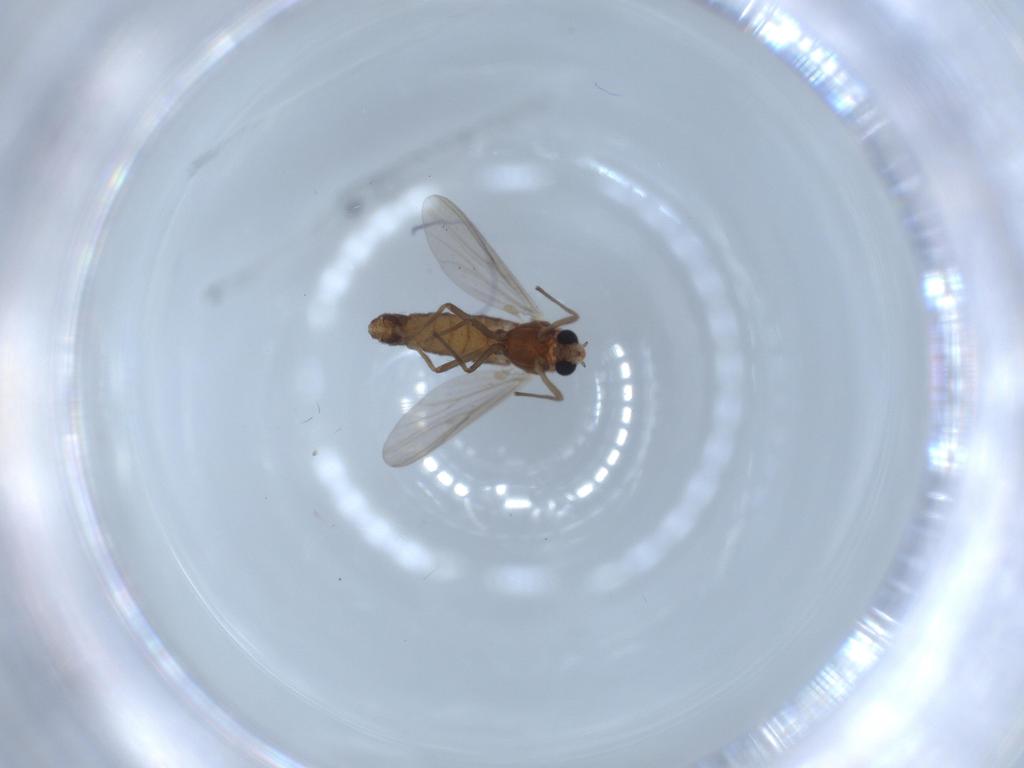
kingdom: Animalia
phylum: Arthropoda
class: Insecta
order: Diptera
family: Chironomidae
